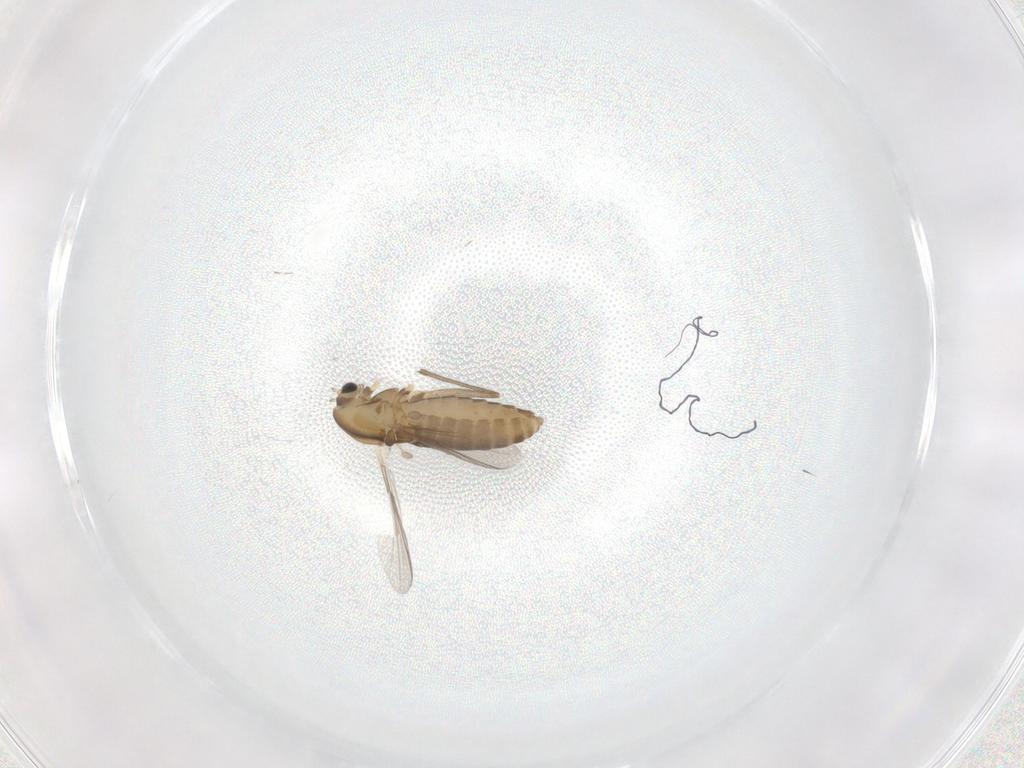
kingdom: Animalia
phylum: Arthropoda
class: Insecta
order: Diptera
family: Chironomidae
